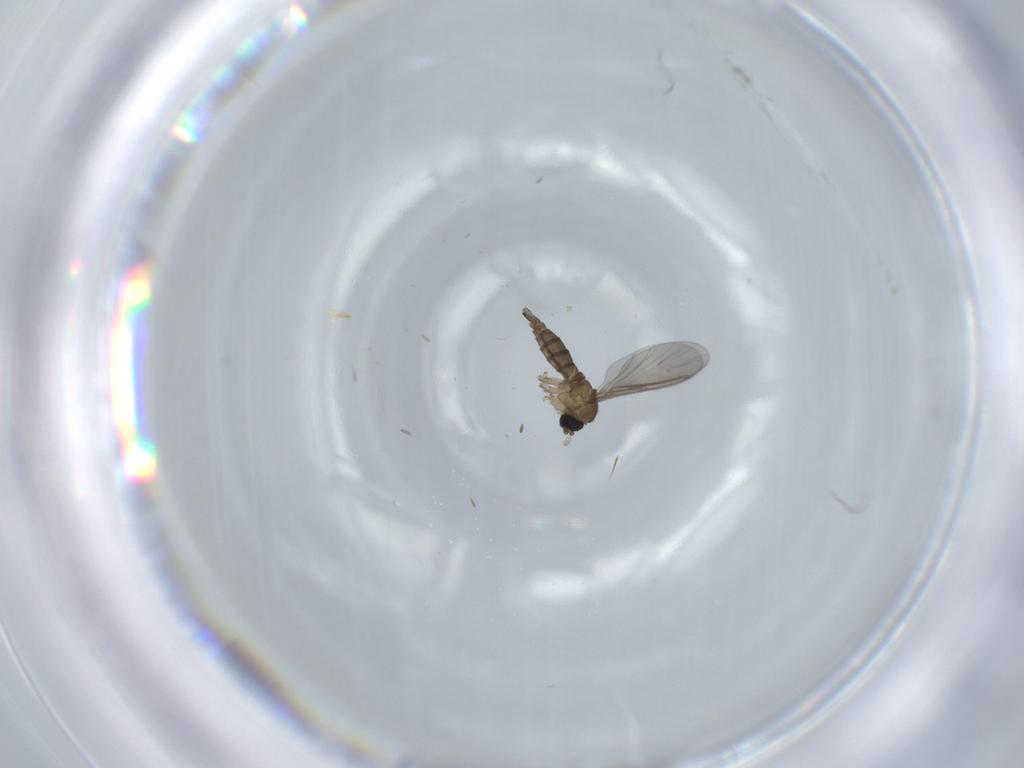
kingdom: Animalia
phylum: Arthropoda
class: Insecta
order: Diptera
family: Sciaridae
